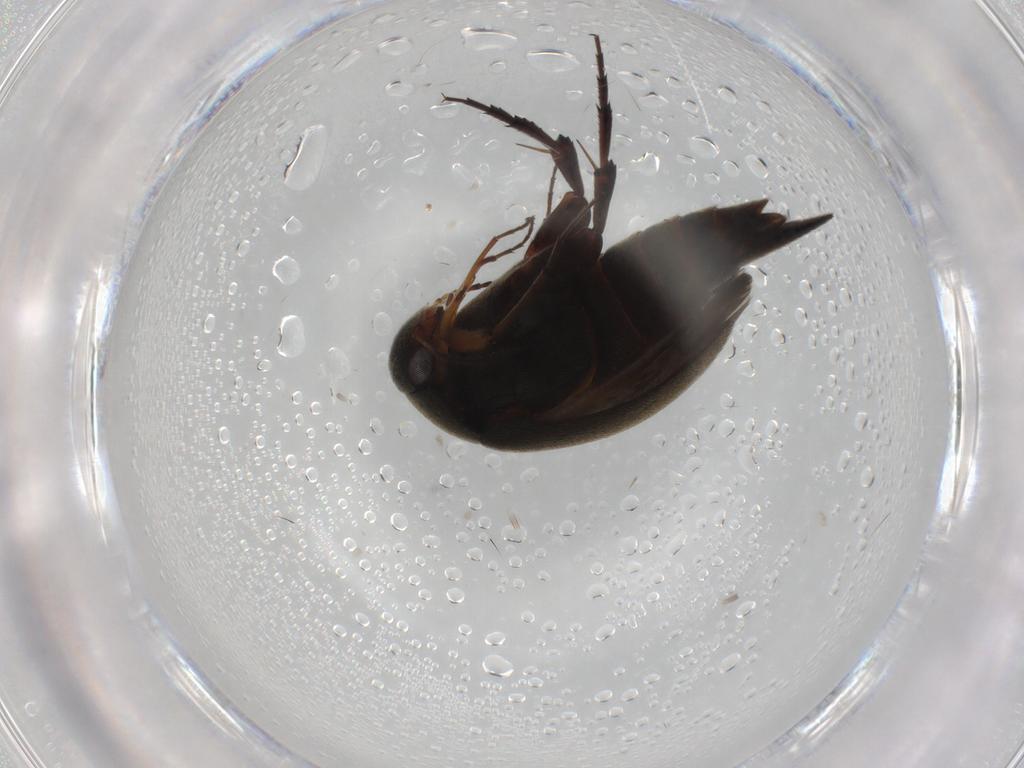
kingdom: Animalia
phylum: Arthropoda
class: Insecta
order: Coleoptera
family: Mordellidae
